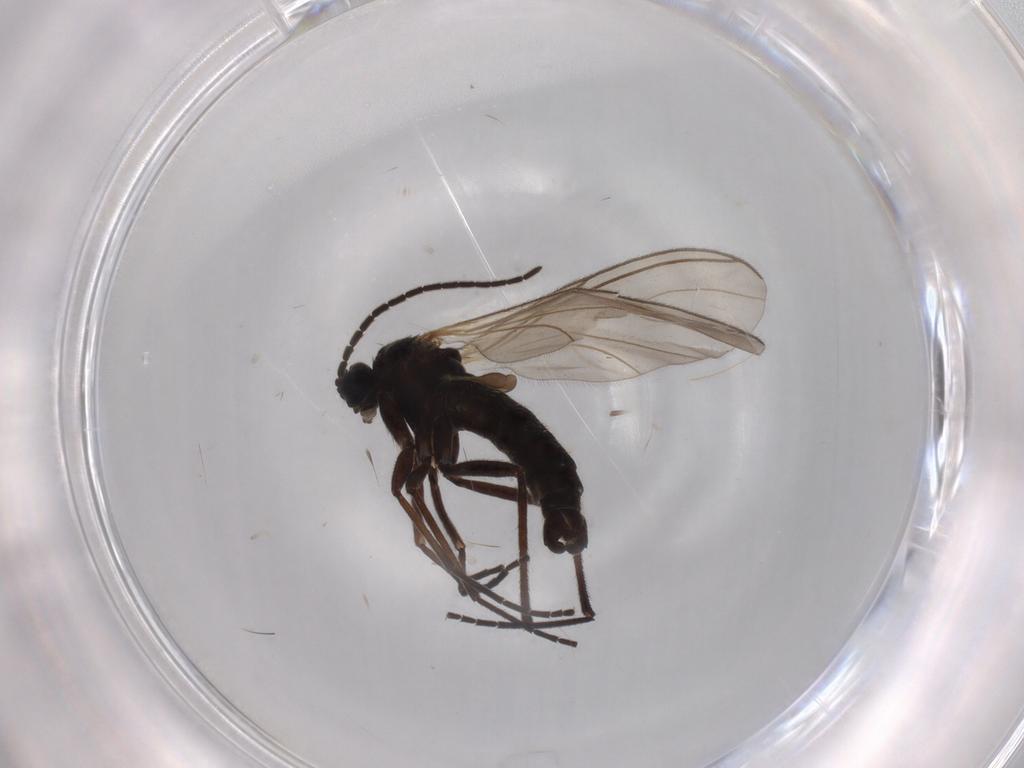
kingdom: Animalia
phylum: Arthropoda
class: Insecta
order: Diptera
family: Sciaridae
